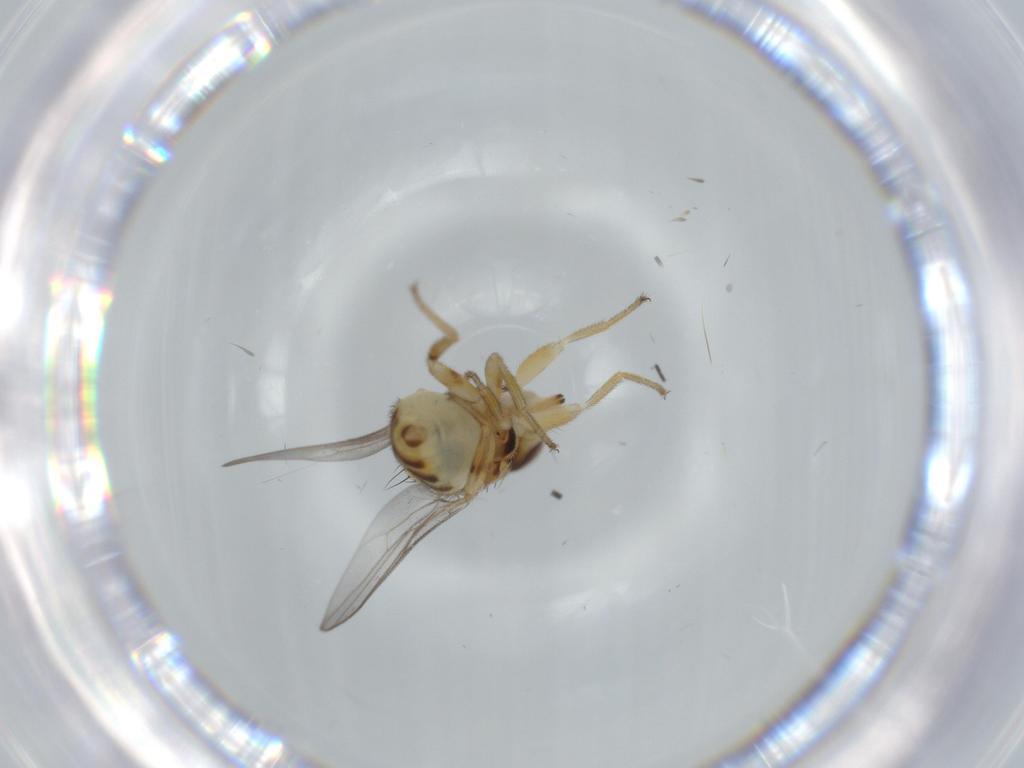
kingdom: Animalia
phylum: Arthropoda
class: Insecta
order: Diptera
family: Chloropidae
